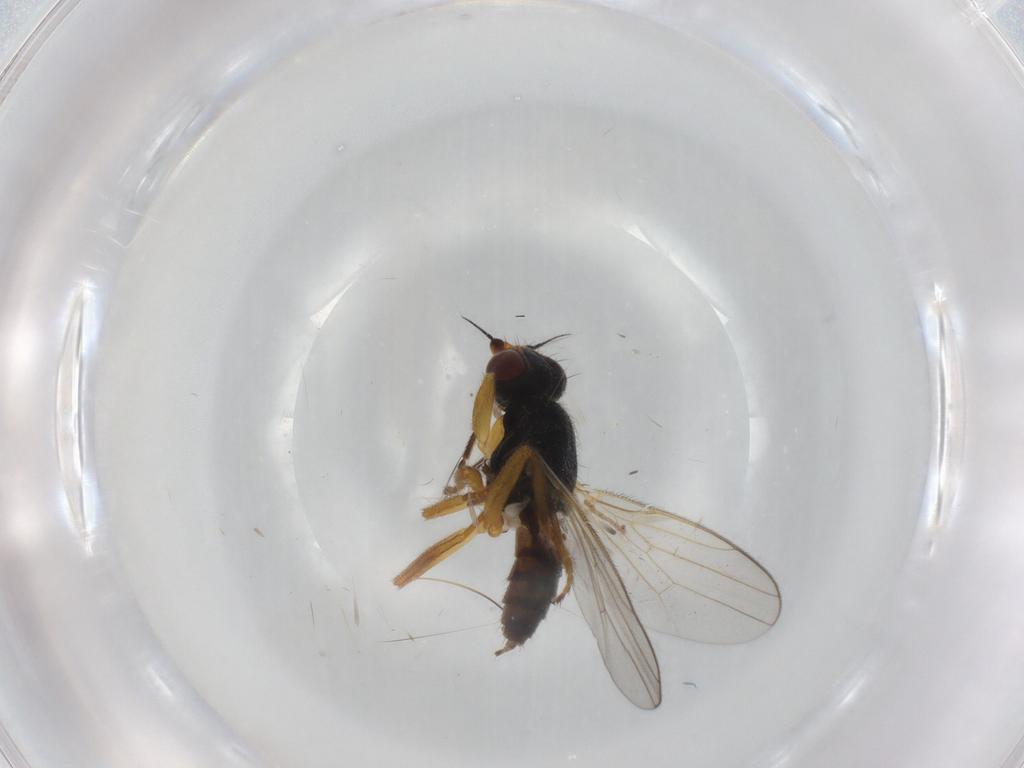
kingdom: Animalia
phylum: Arthropoda
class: Insecta
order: Diptera
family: Chloropidae
